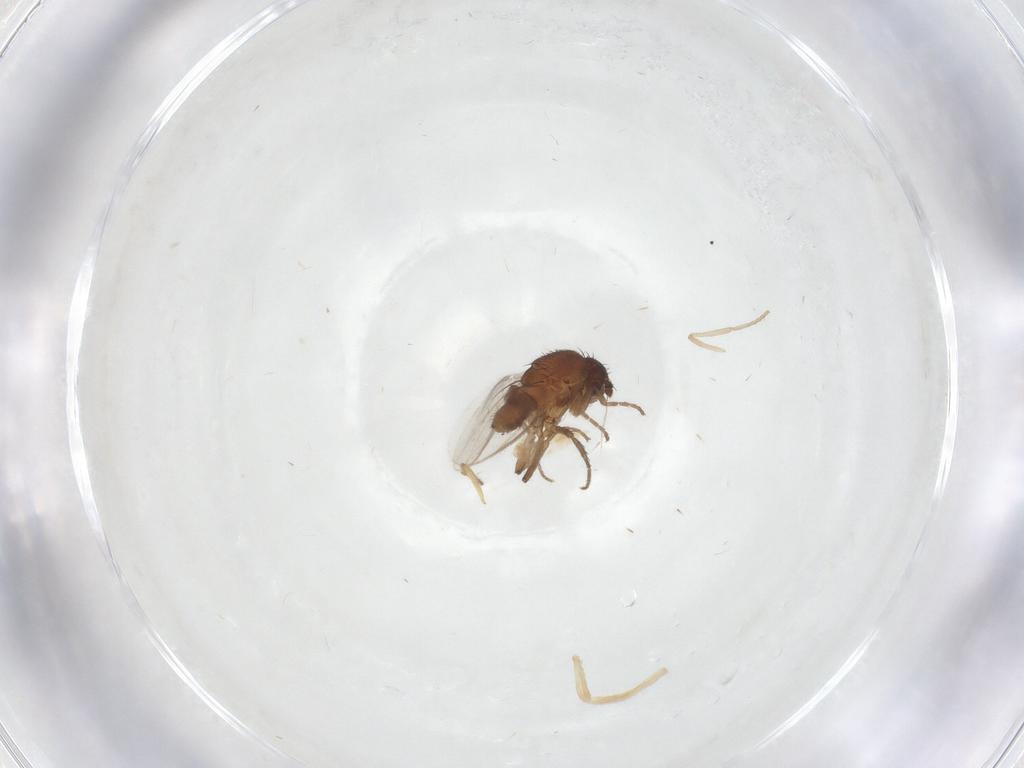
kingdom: Animalia
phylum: Arthropoda
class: Insecta
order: Diptera
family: Sphaeroceridae
